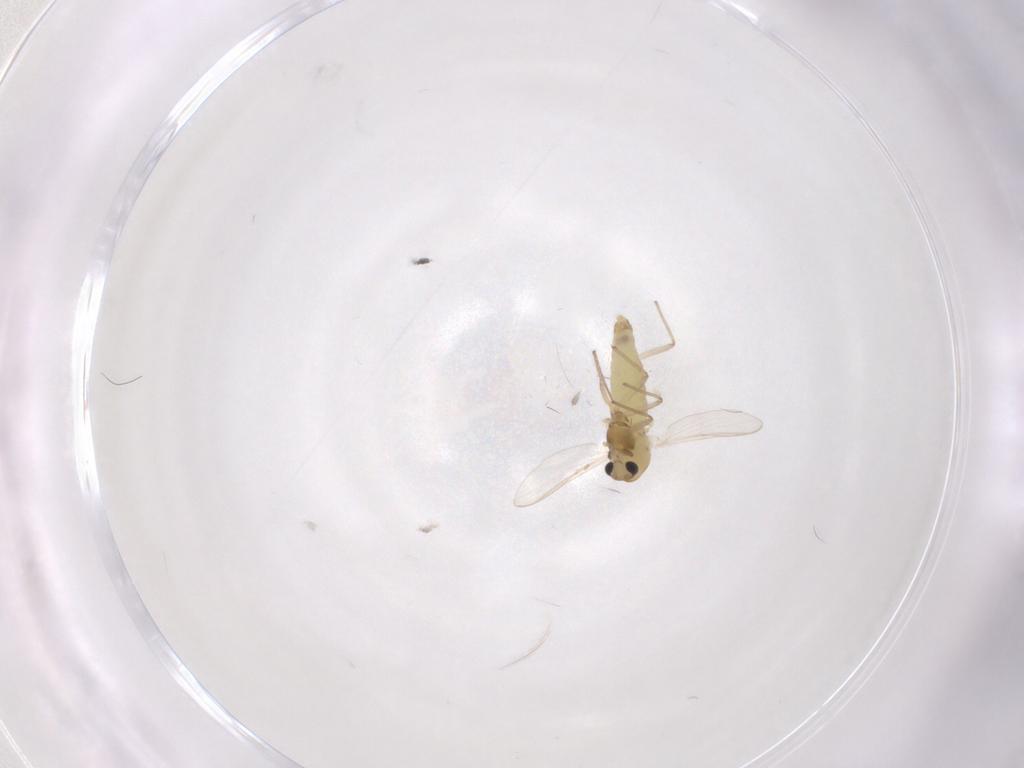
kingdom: Animalia
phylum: Arthropoda
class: Insecta
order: Diptera
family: Chironomidae
